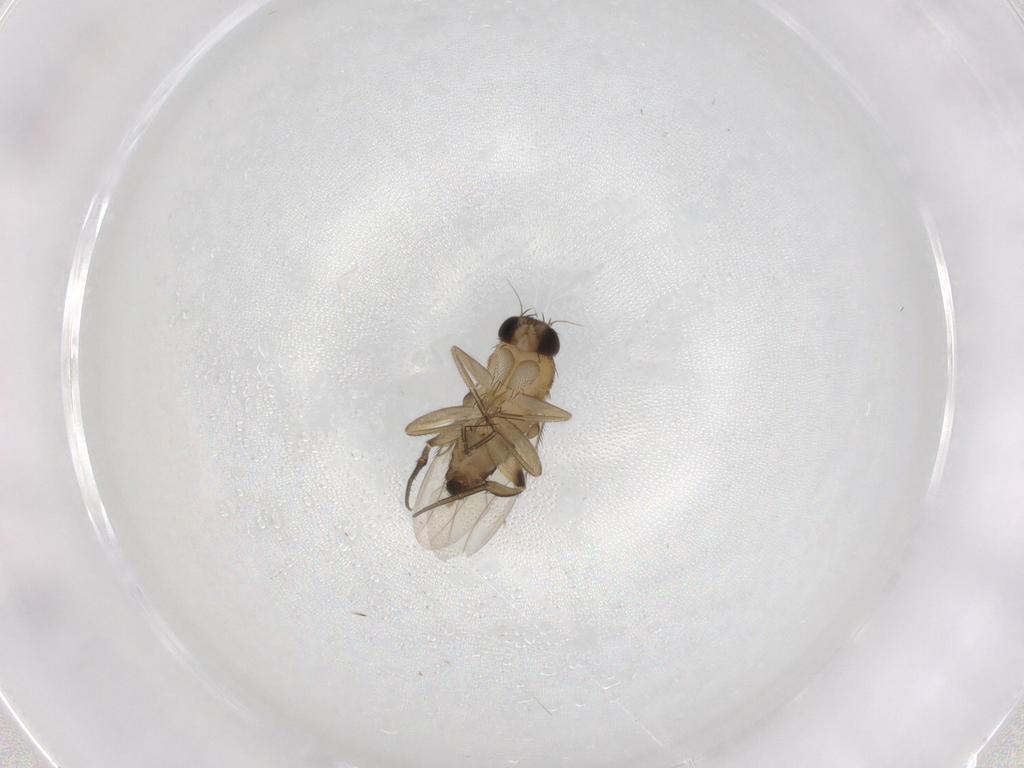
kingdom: Animalia
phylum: Arthropoda
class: Insecta
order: Diptera
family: Phoridae
